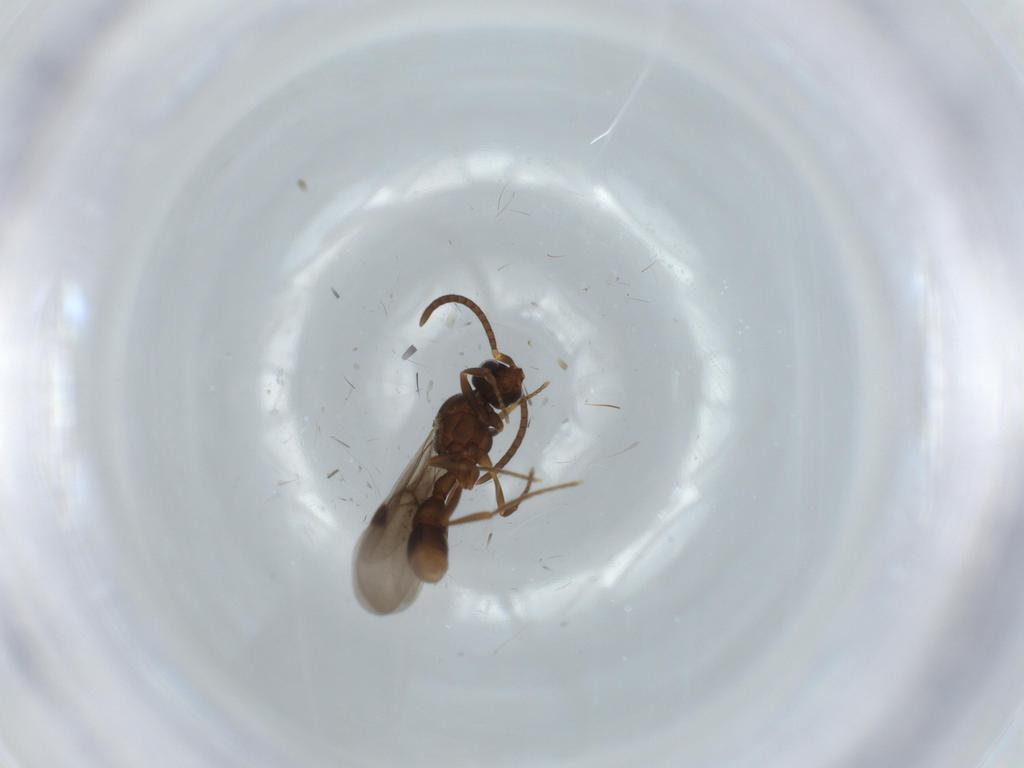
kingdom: Animalia
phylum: Arthropoda
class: Insecta
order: Hymenoptera
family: Formicidae
